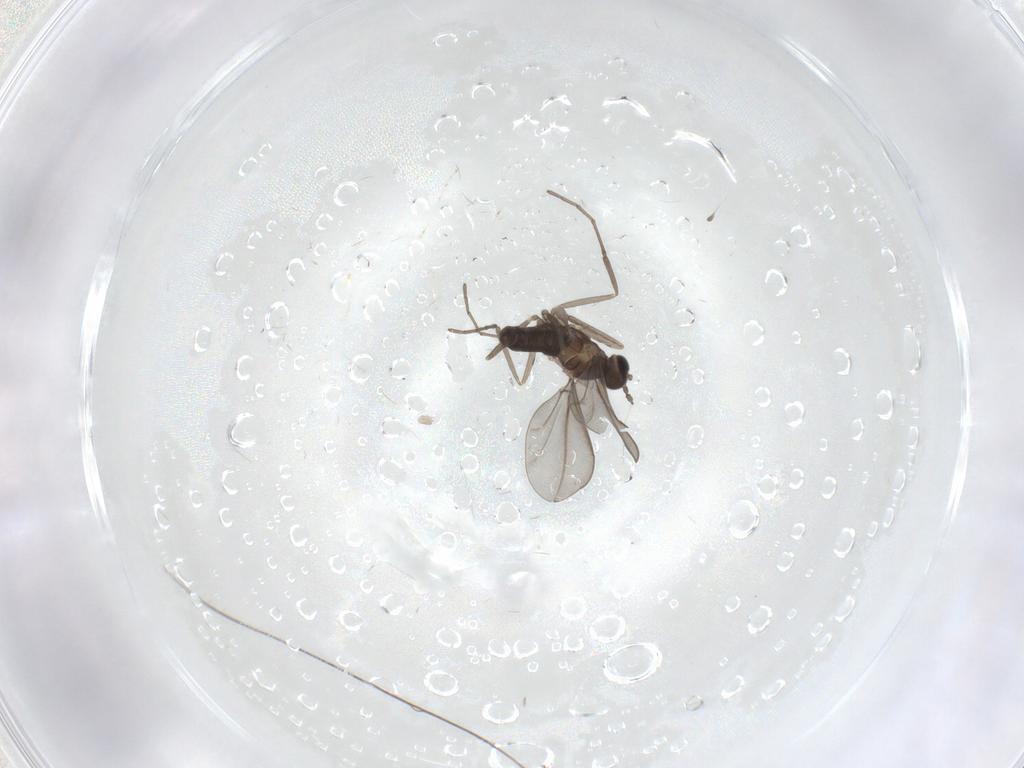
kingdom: Animalia
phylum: Arthropoda
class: Insecta
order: Diptera
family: Cecidomyiidae
